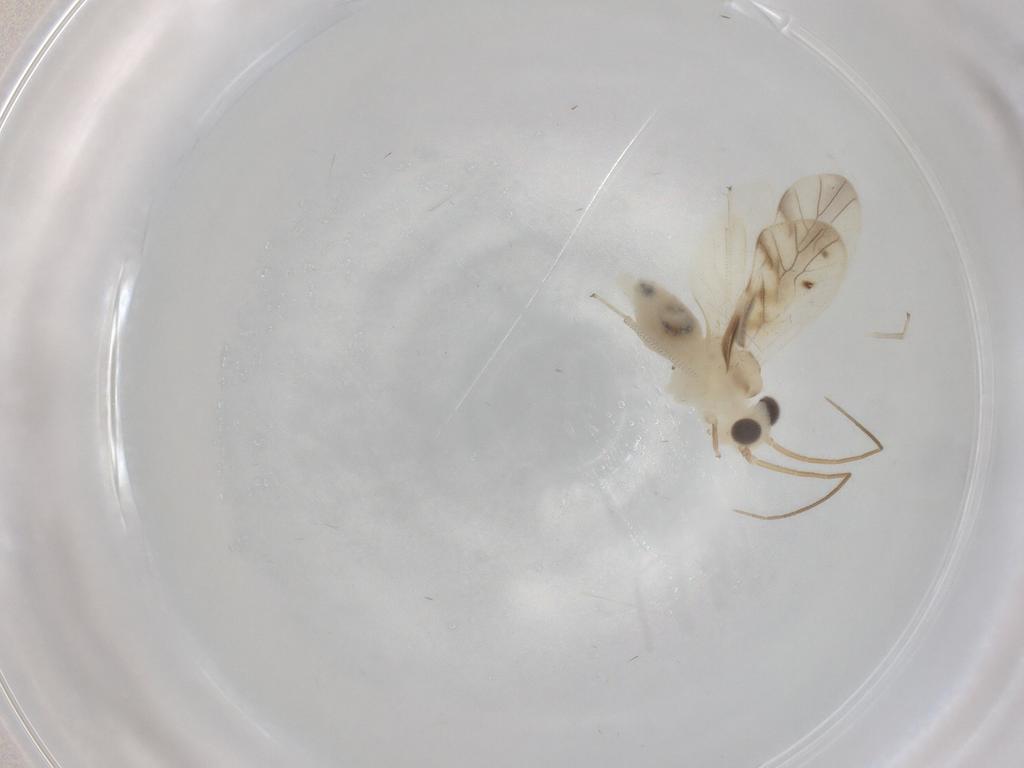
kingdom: Animalia
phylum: Arthropoda
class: Insecta
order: Psocodea
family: Caeciliusidae
